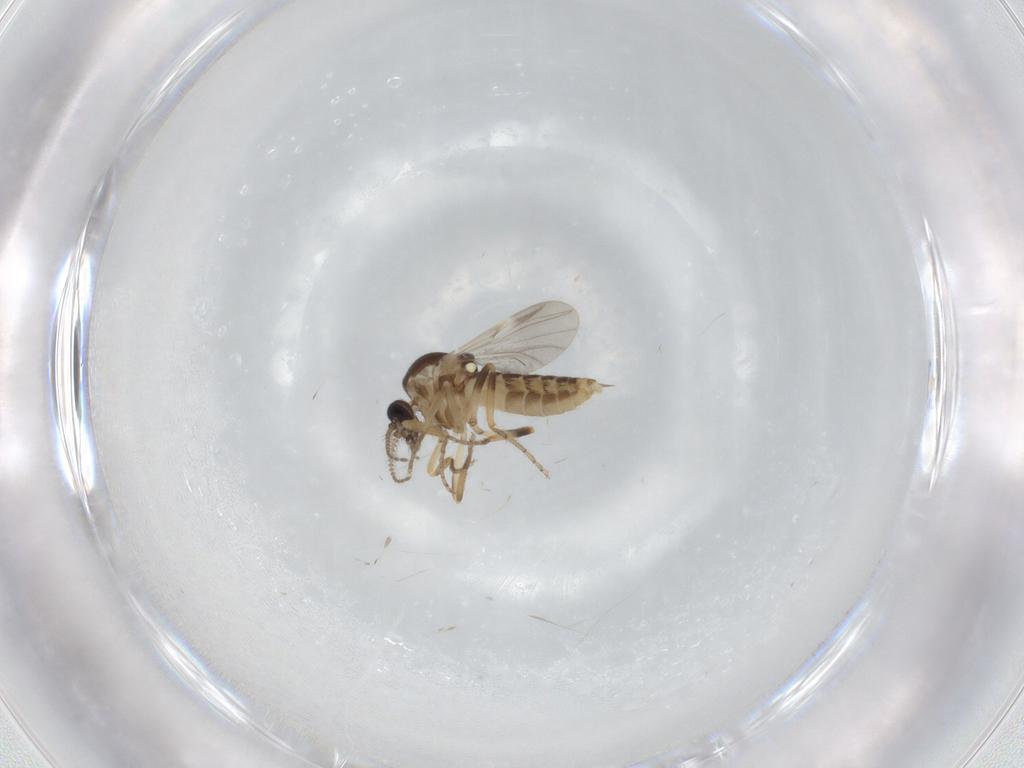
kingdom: Animalia
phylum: Arthropoda
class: Insecta
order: Diptera
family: Ceratopogonidae
